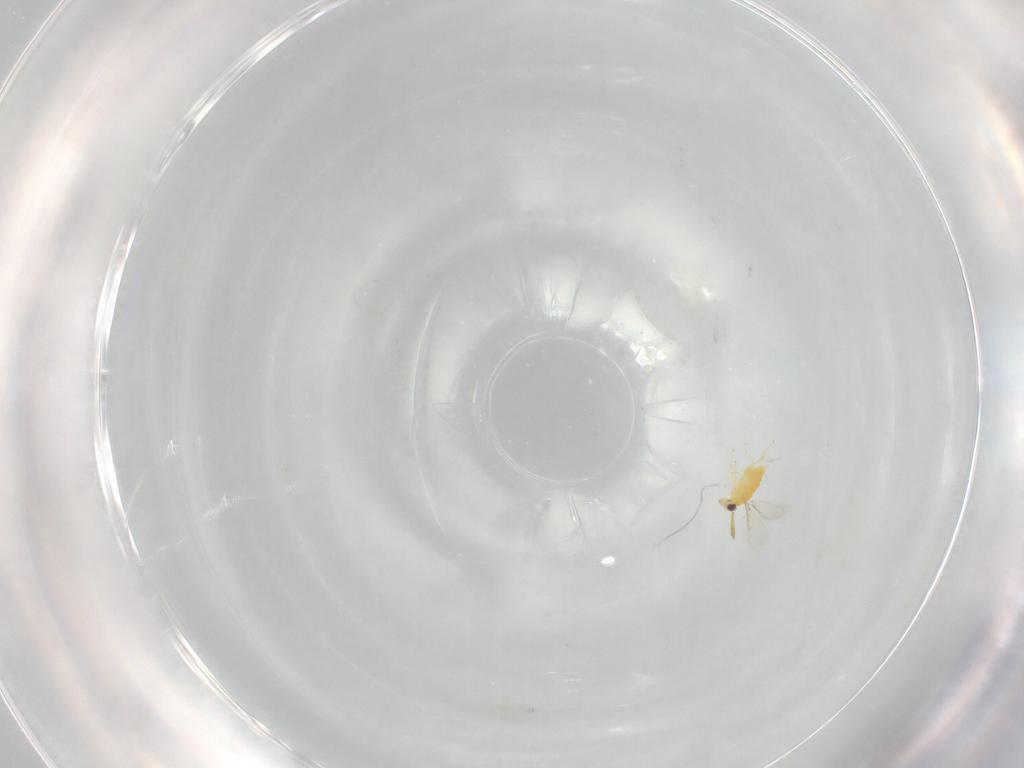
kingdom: Animalia
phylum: Arthropoda
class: Insecta
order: Hymenoptera
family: Aphelinidae
